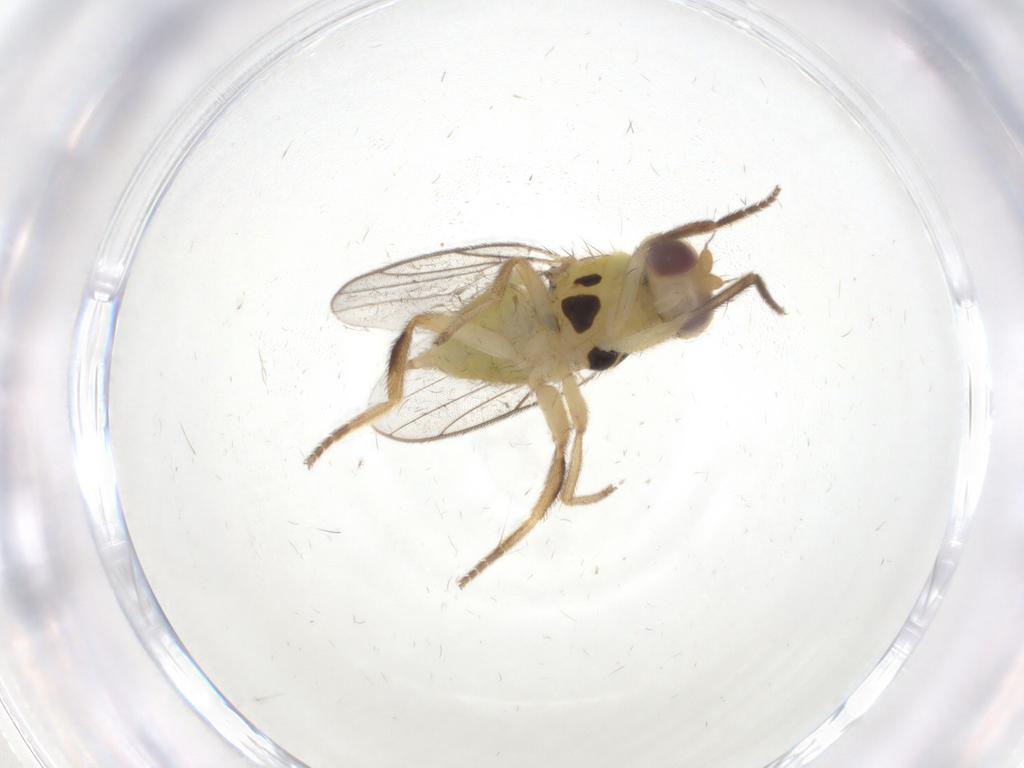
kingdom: Animalia
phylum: Arthropoda
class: Insecta
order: Diptera
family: Chloropidae
